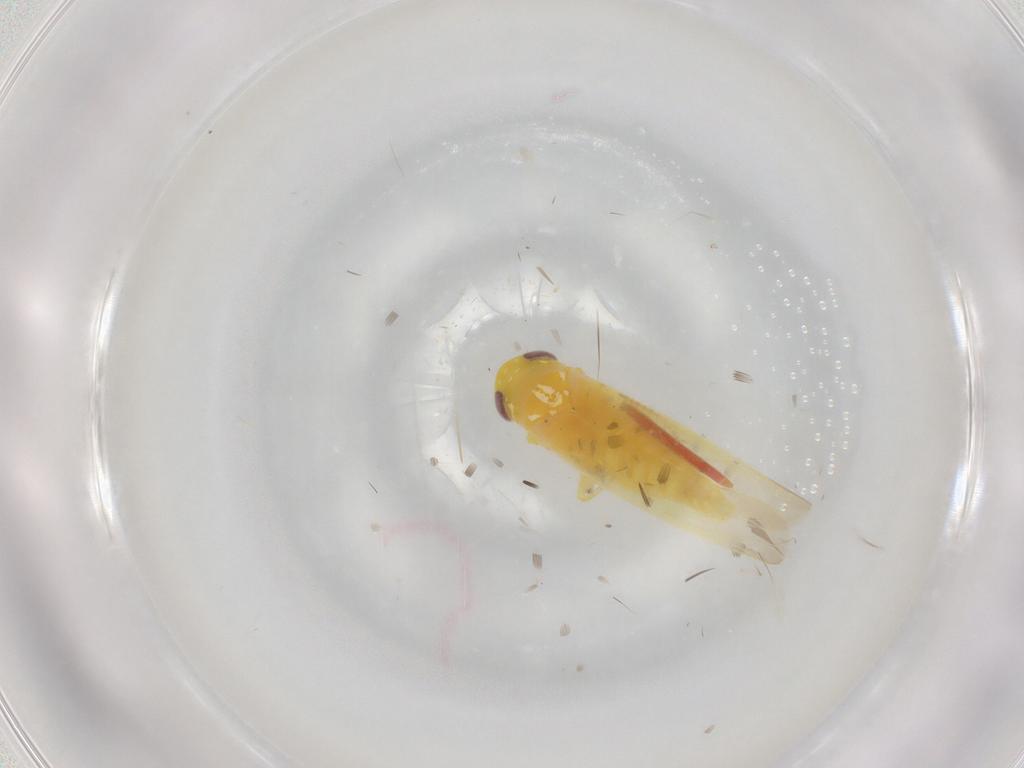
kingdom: Animalia
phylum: Arthropoda
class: Insecta
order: Hemiptera
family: Cicadellidae
